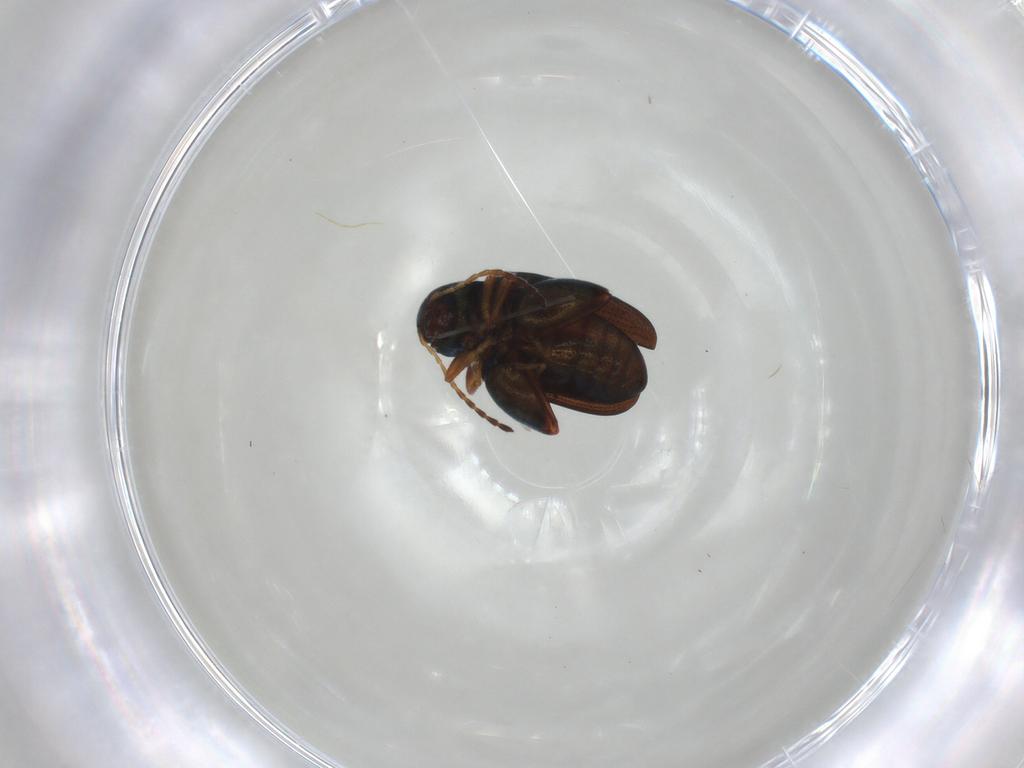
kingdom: Animalia
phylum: Arthropoda
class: Insecta
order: Coleoptera
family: Chrysomelidae
